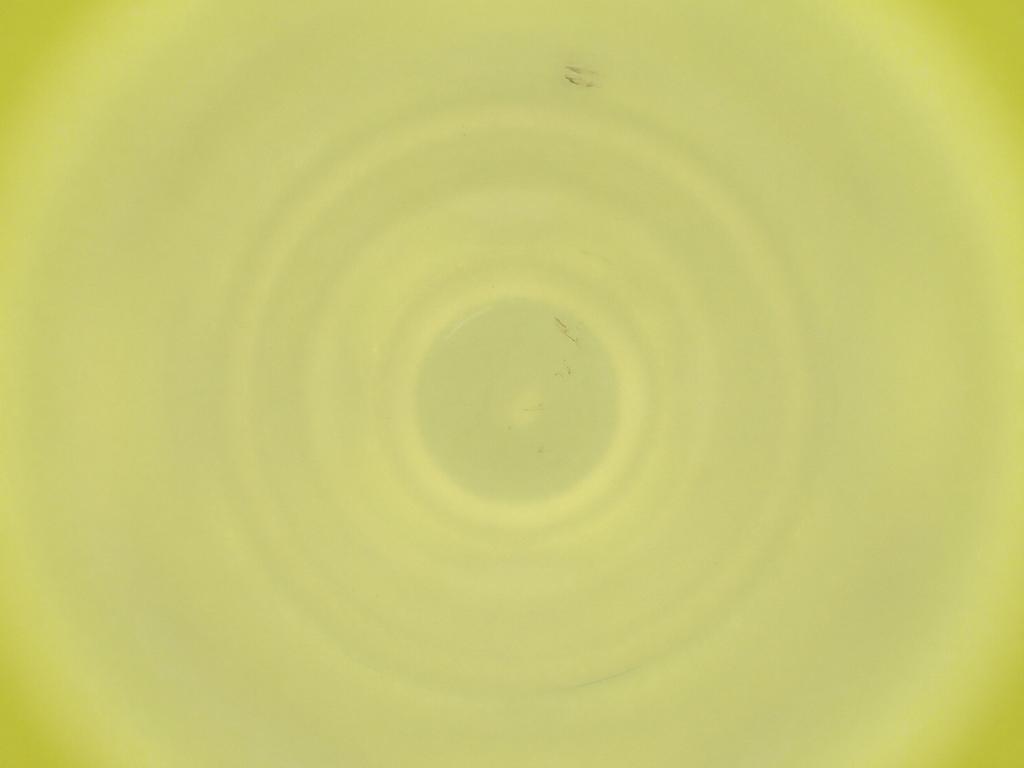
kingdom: Animalia
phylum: Arthropoda
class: Insecta
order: Diptera
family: Cecidomyiidae
